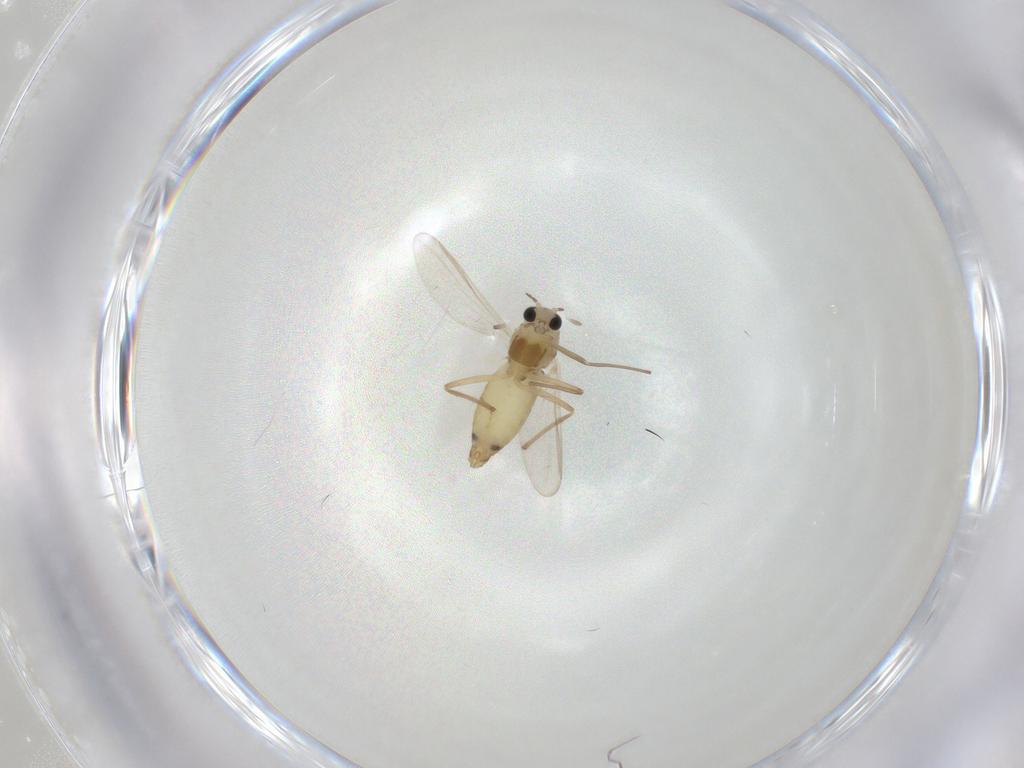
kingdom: Animalia
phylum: Arthropoda
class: Insecta
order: Diptera
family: Chironomidae
